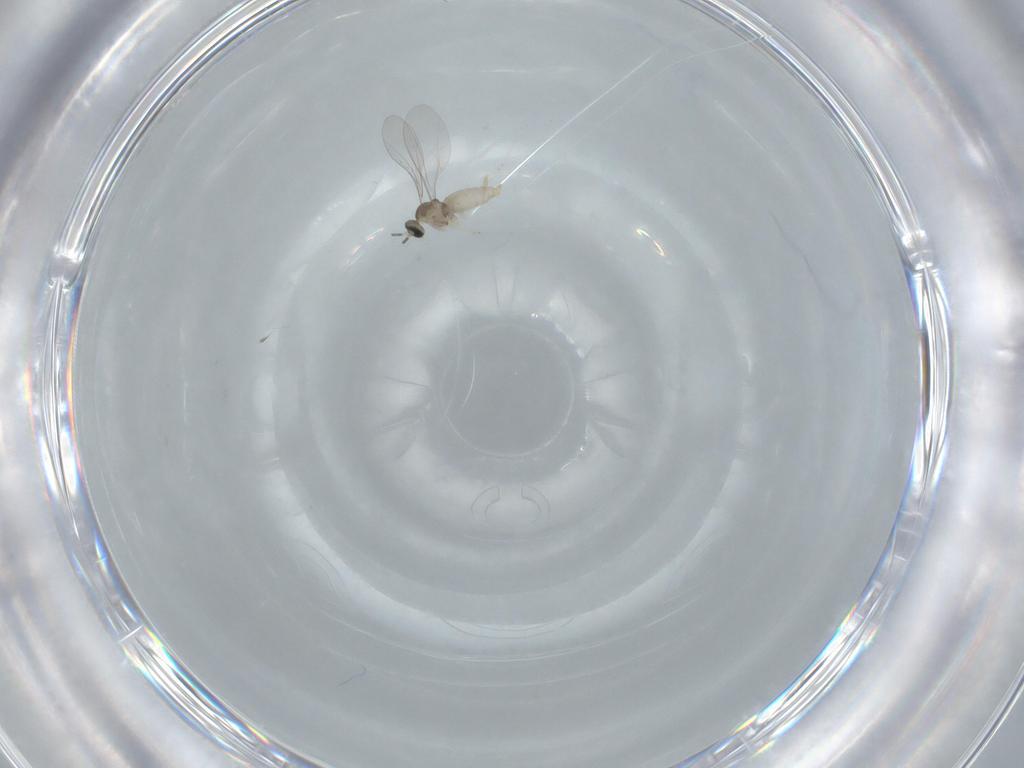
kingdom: Animalia
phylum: Arthropoda
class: Insecta
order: Diptera
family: Cecidomyiidae
